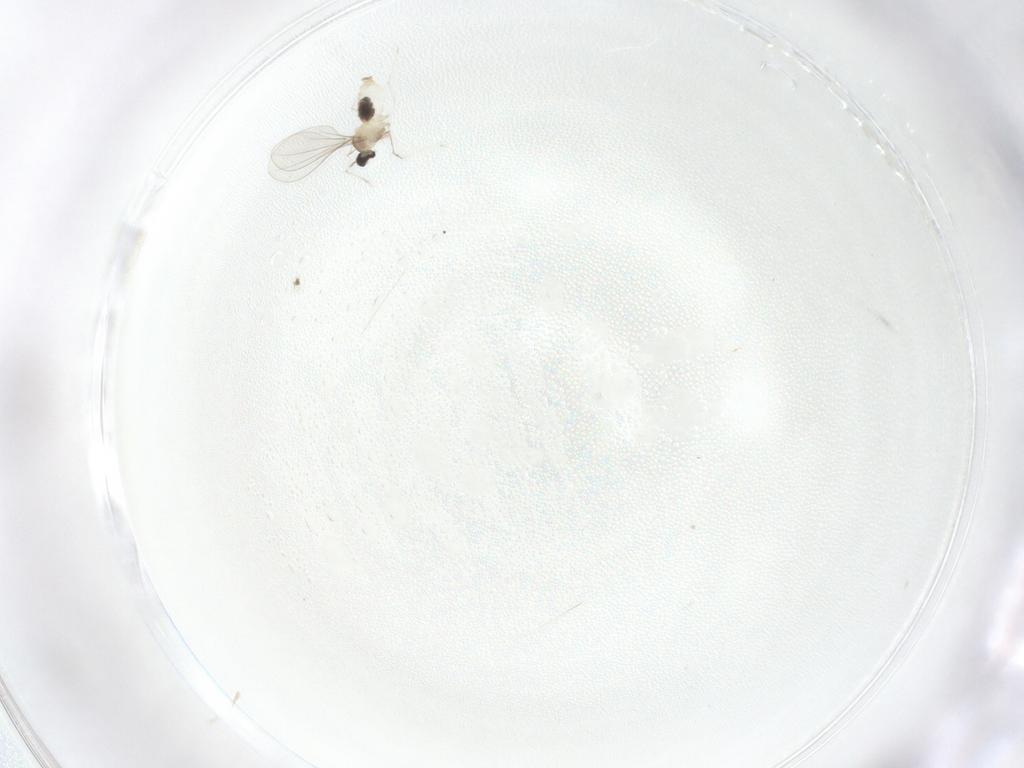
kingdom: Animalia
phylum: Arthropoda
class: Insecta
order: Diptera
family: Cecidomyiidae
